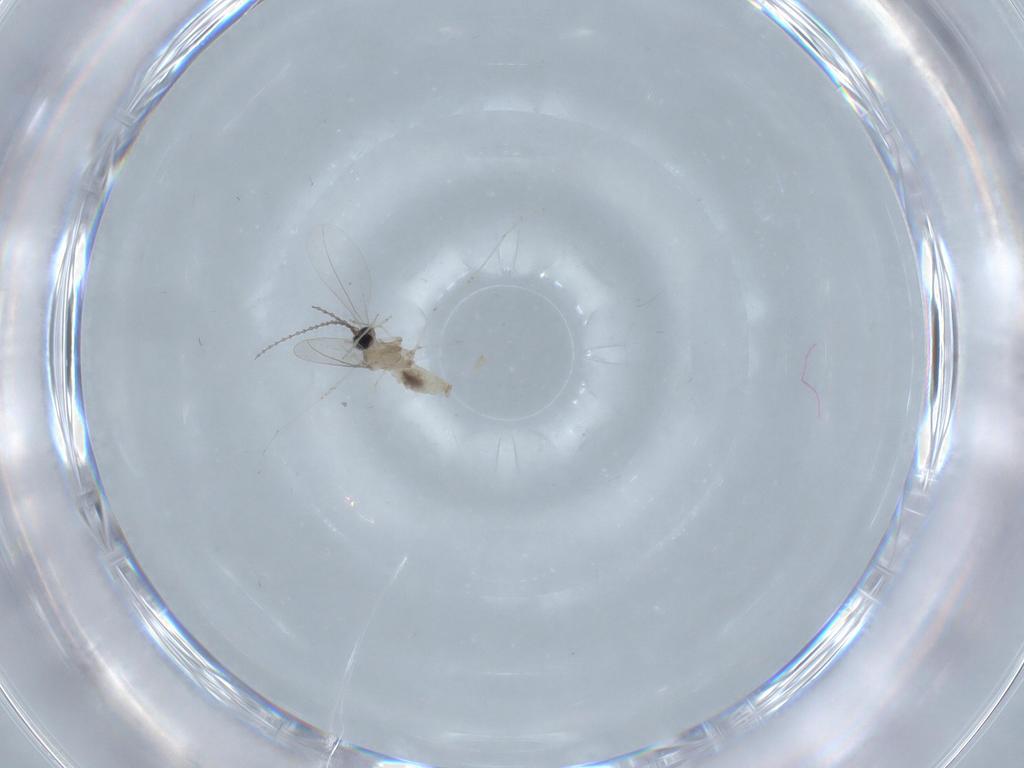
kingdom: Animalia
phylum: Arthropoda
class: Insecta
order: Diptera
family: Cecidomyiidae
